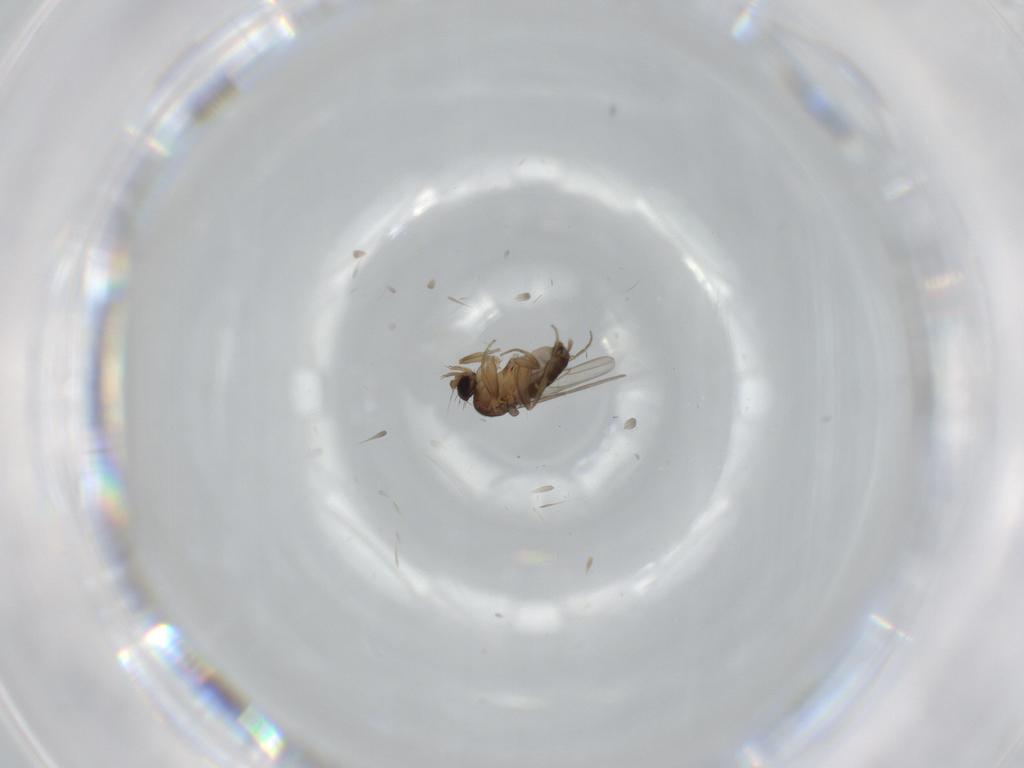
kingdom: Animalia
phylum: Arthropoda
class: Insecta
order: Diptera
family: Phoridae
